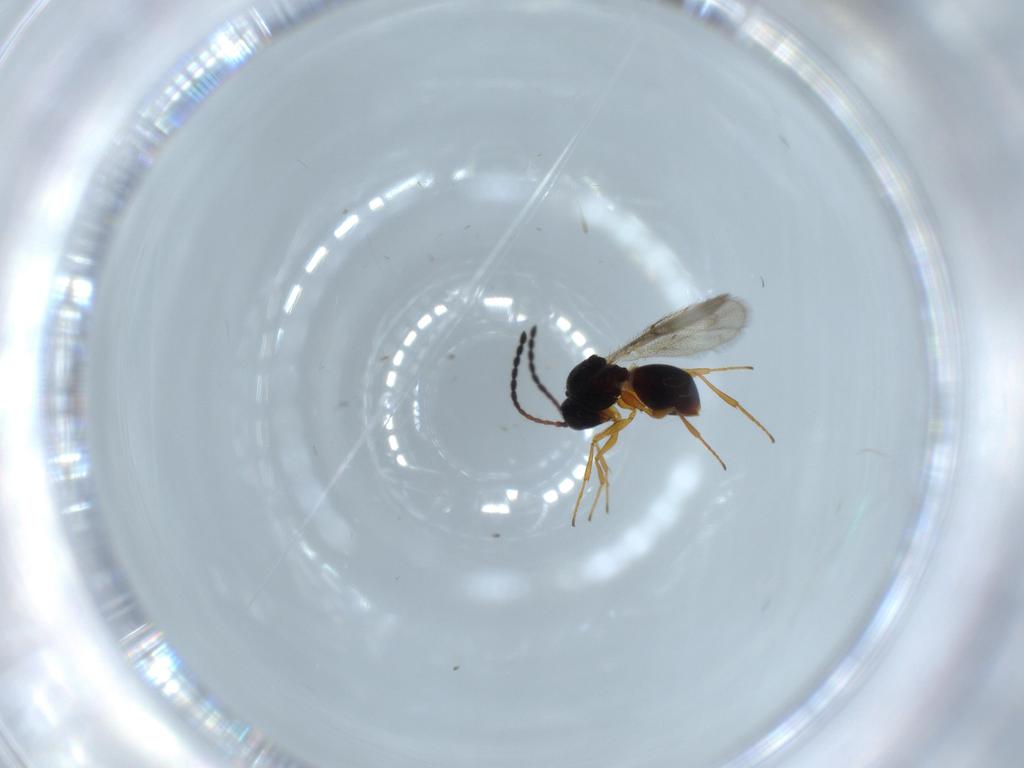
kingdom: Animalia
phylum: Arthropoda
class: Insecta
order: Hymenoptera
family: Figitidae
